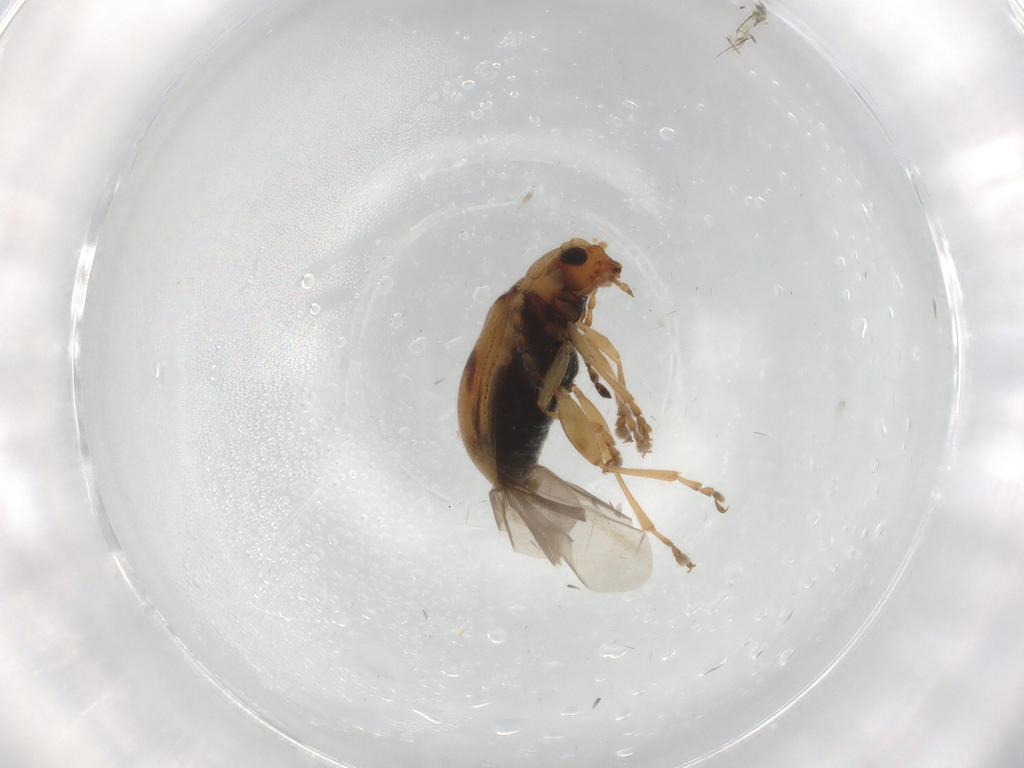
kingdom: Animalia
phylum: Arthropoda
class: Insecta
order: Coleoptera
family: Chrysomelidae
